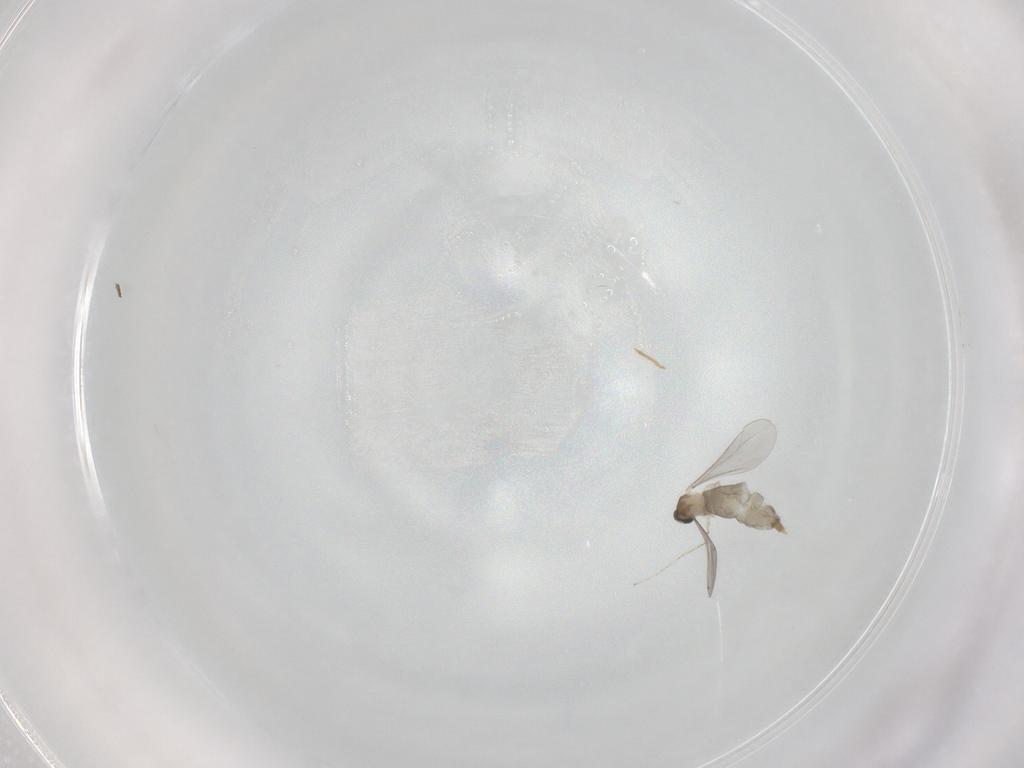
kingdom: Animalia
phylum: Arthropoda
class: Insecta
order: Diptera
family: Chironomidae
